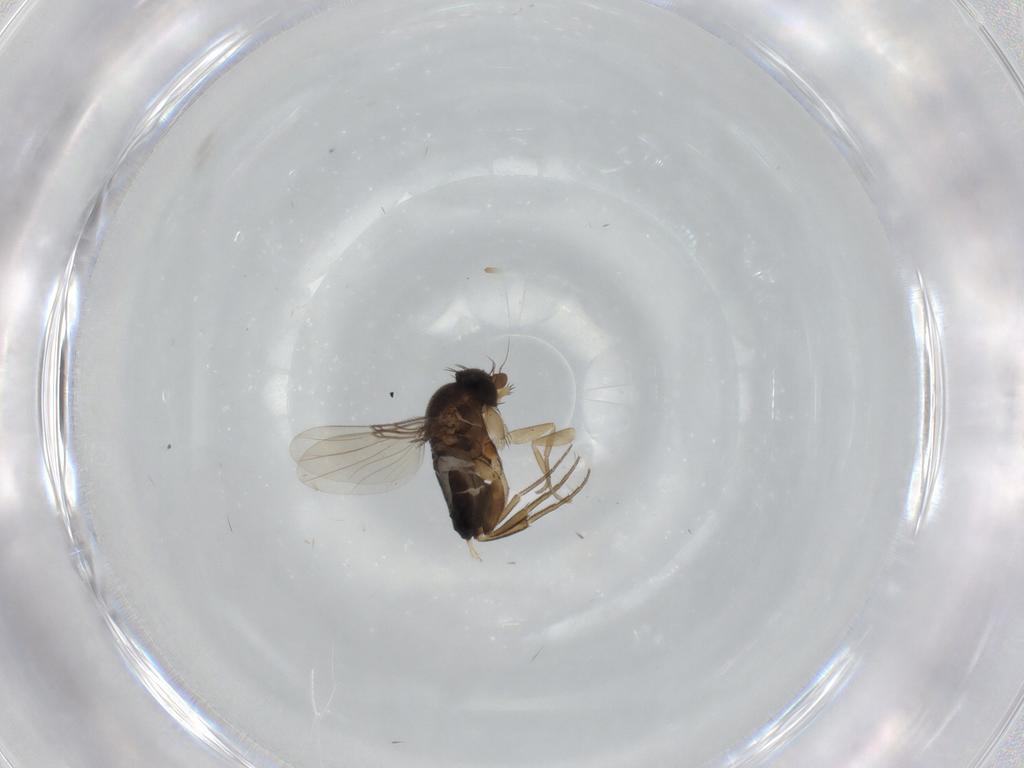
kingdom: Animalia
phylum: Arthropoda
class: Insecta
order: Diptera
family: Phoridae
